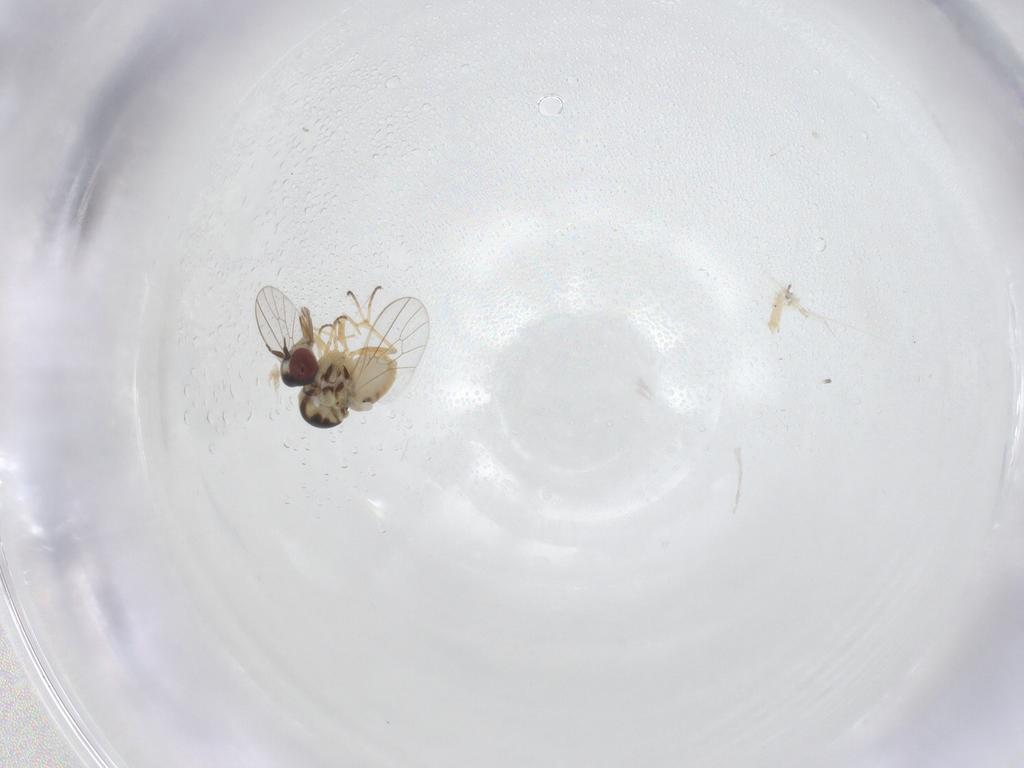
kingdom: Animalia
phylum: Arthropoda
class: Insecta
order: Diptera
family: Mythicomyiidae
